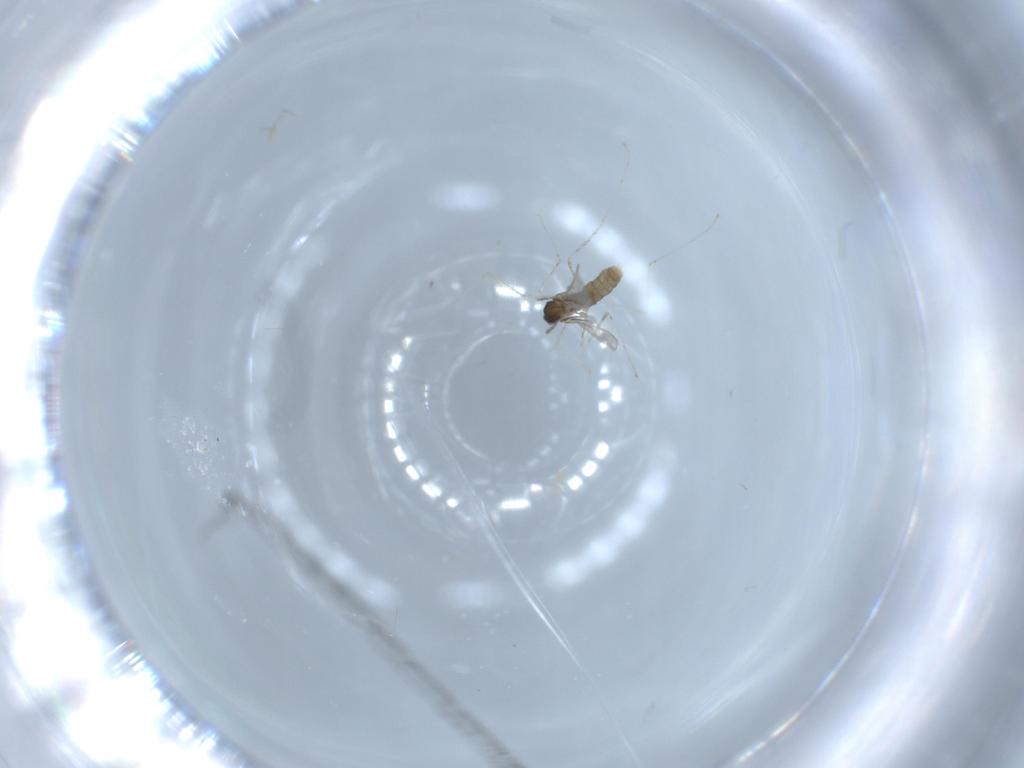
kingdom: Animalia
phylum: Arthropoda
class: Insecta
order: Diptera
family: Cecidomyiidae
